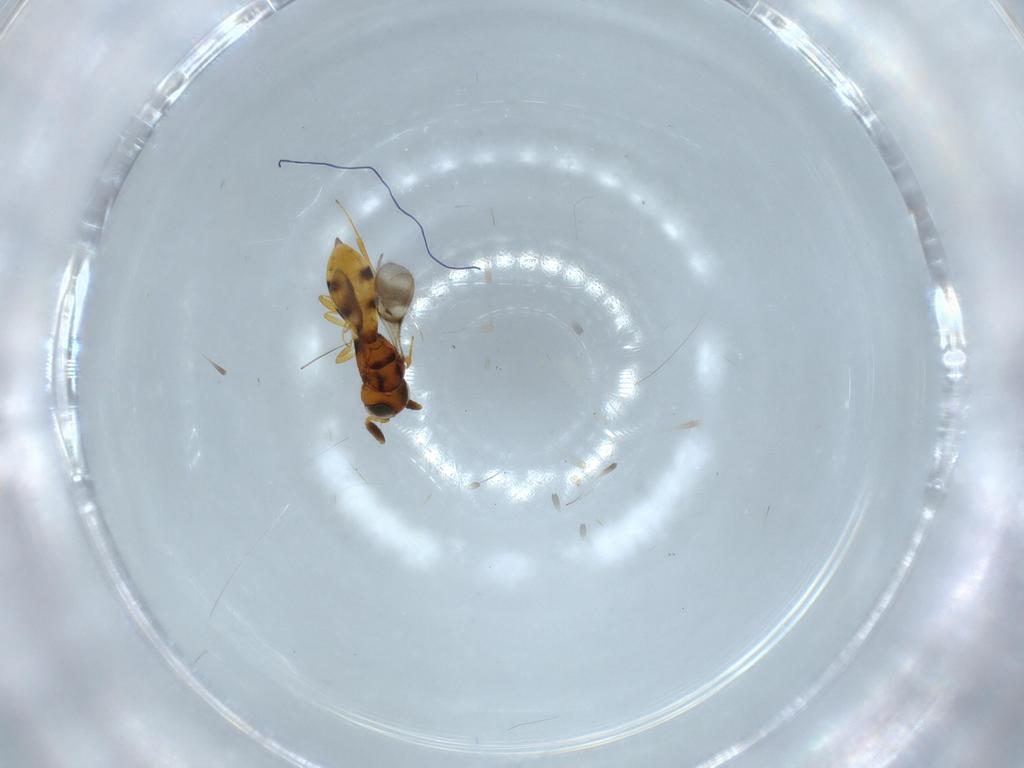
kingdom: Animalia
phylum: Arthropoda
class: Insecta
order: Hymenoptera
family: Scelionidae
